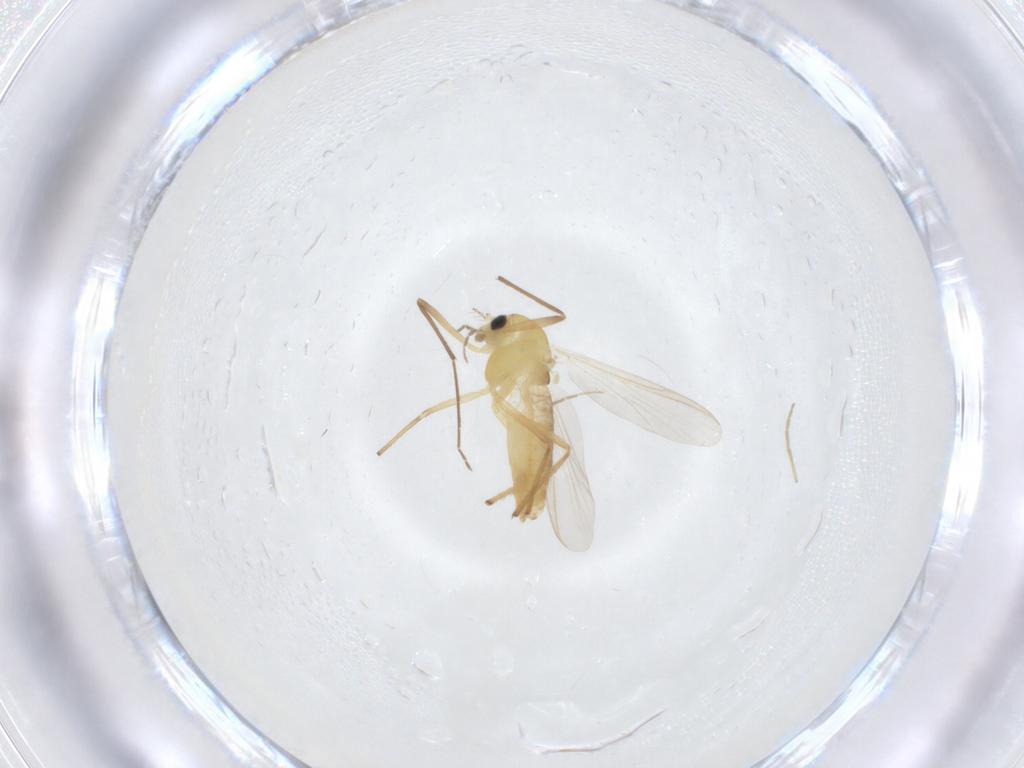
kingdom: Animalia
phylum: Arthropoda
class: Insecta
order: Diptera
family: Chironomidae
